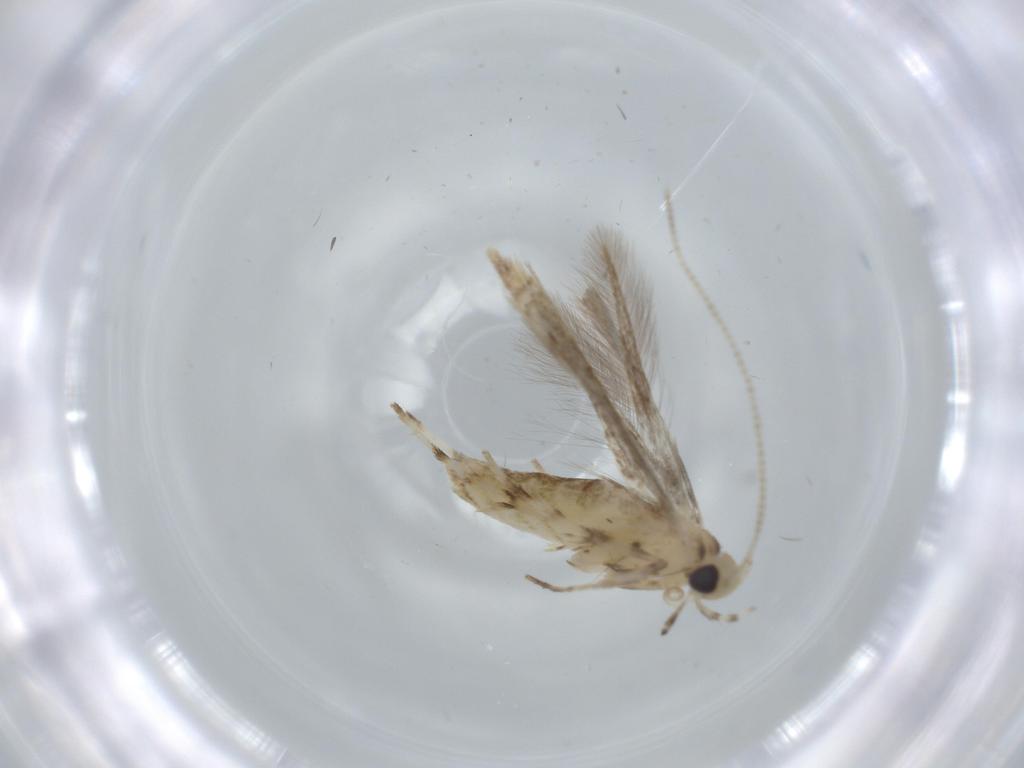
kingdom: Animalia
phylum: Arthropoda
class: Insecta
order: Lepidoptera
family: Gracillariidae
